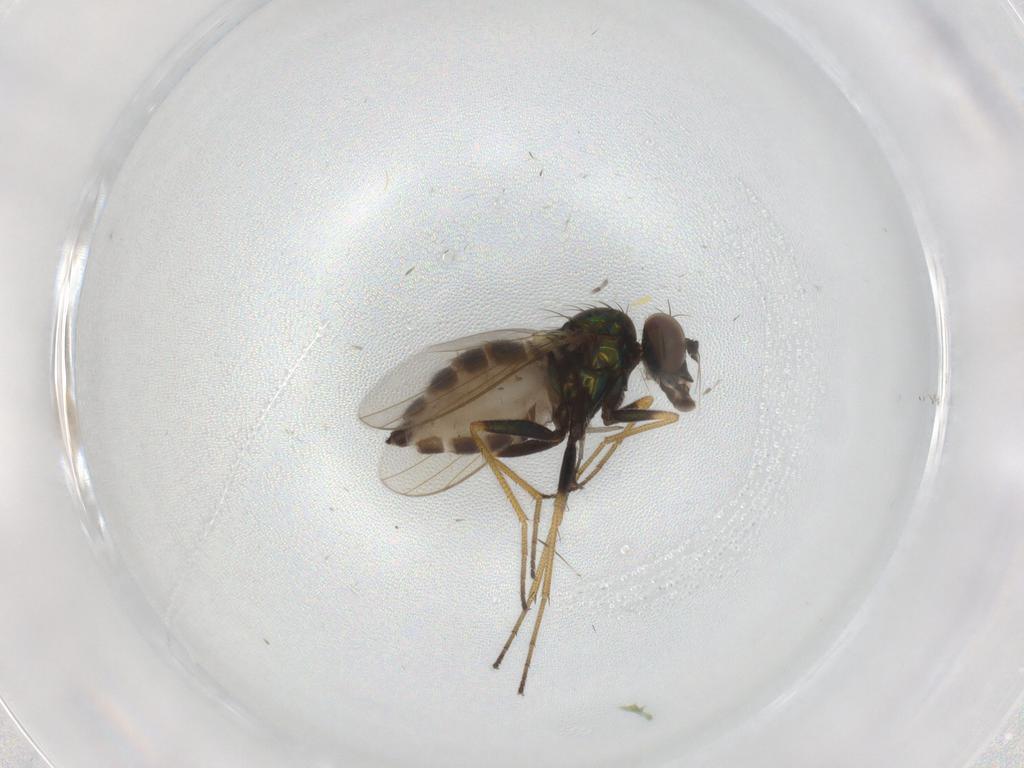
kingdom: Animalia
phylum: Arthropoda
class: Insecta
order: Diptera
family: Dolichopodidae
